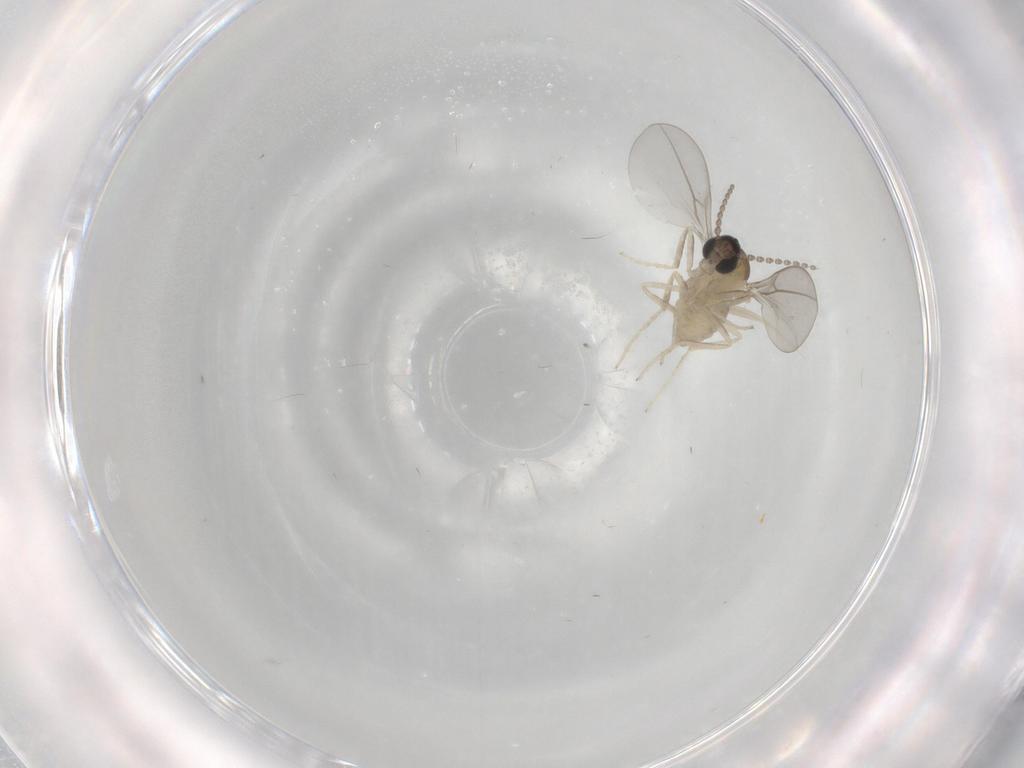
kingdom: Animalia
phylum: Arthropoda
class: Insecta
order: Diptera
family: Cecidomyiidae
